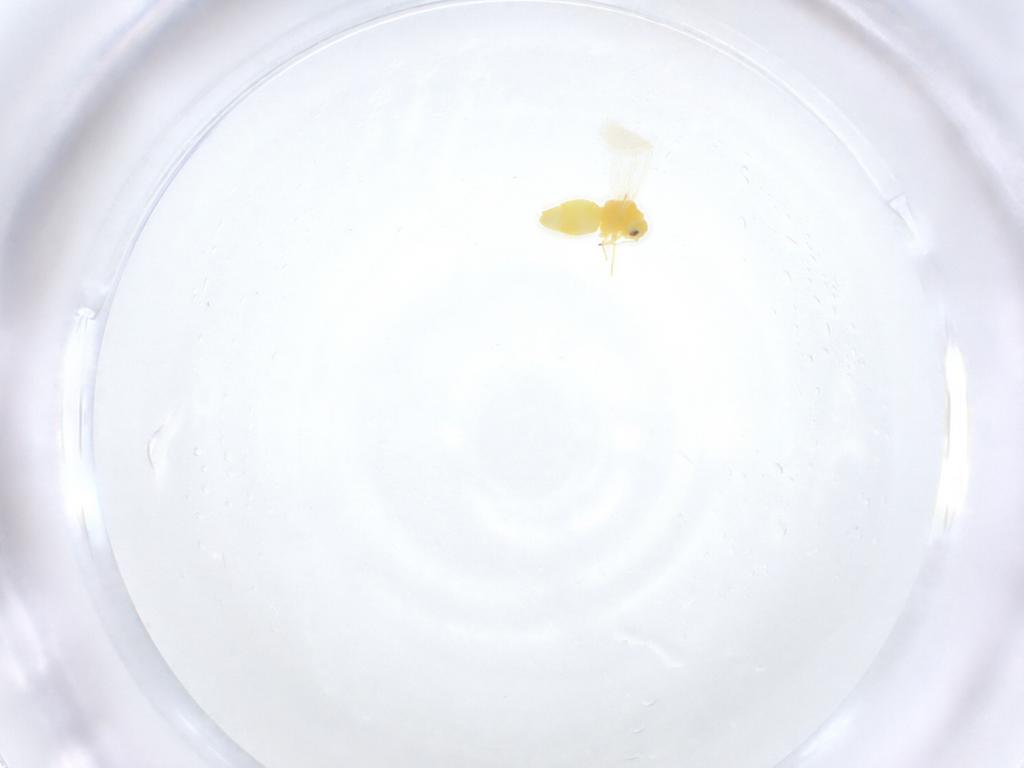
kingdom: Animalia
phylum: Arthropoda
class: Insecta
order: Hemiptera
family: Aleyrodidae
